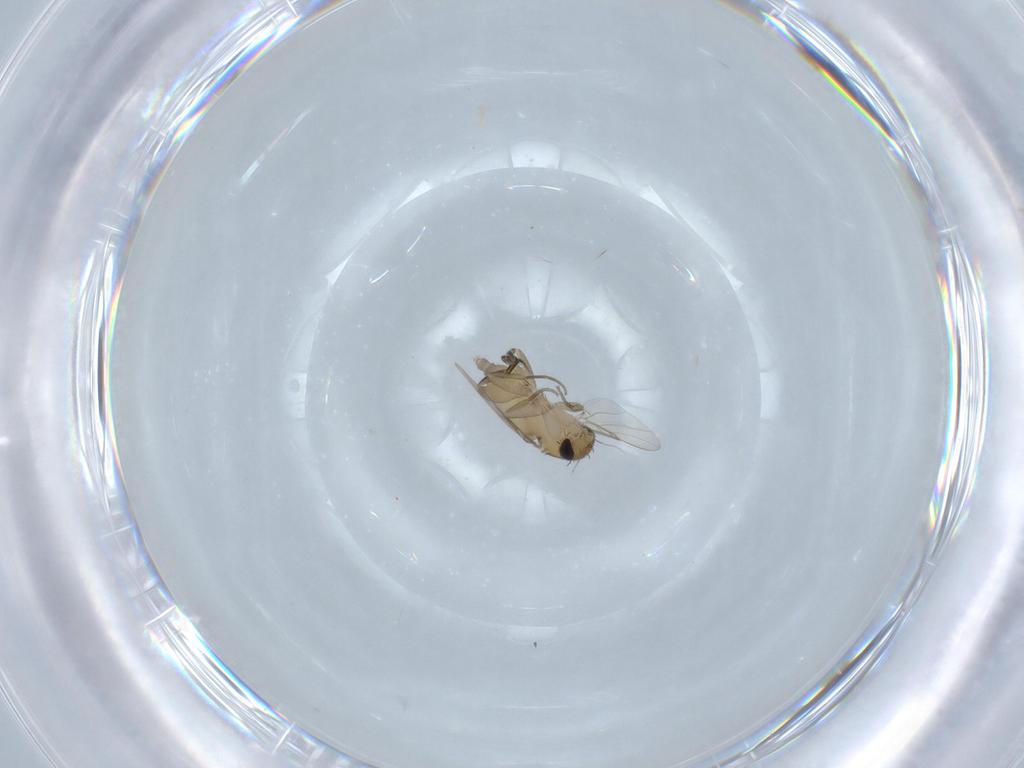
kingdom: Animalia
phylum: Arthropoda
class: Insecta
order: Diptera
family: Phoridae
